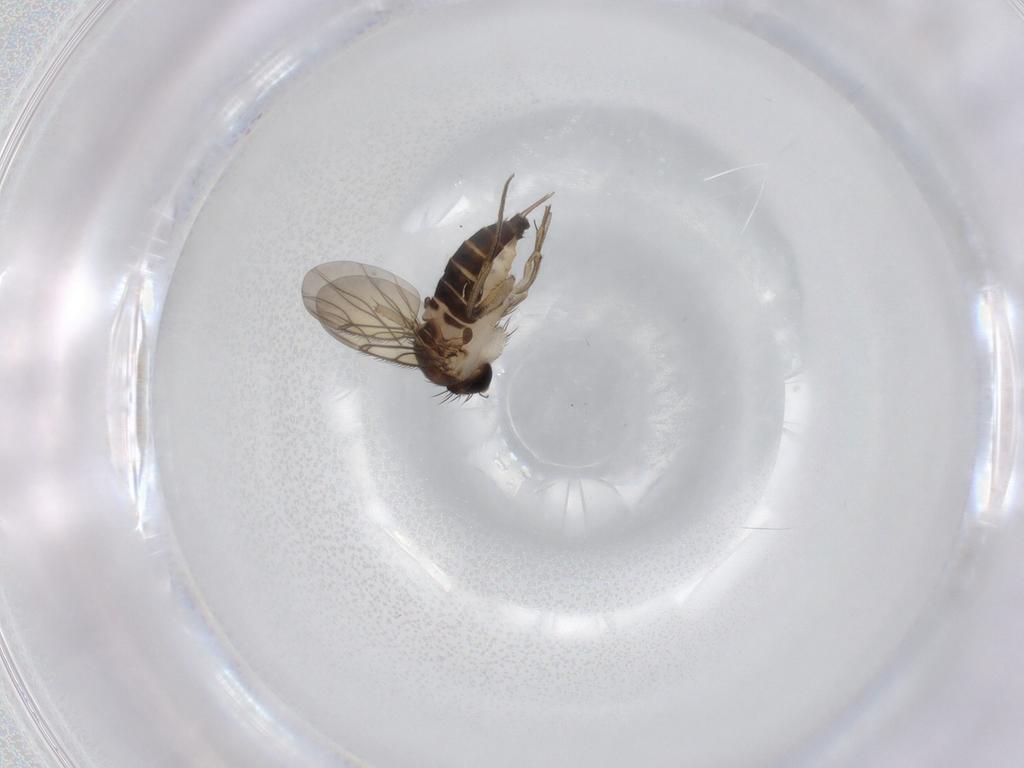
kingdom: Animalia
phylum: Arthropoda
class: Insecta
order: Diptera
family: Phoridae
